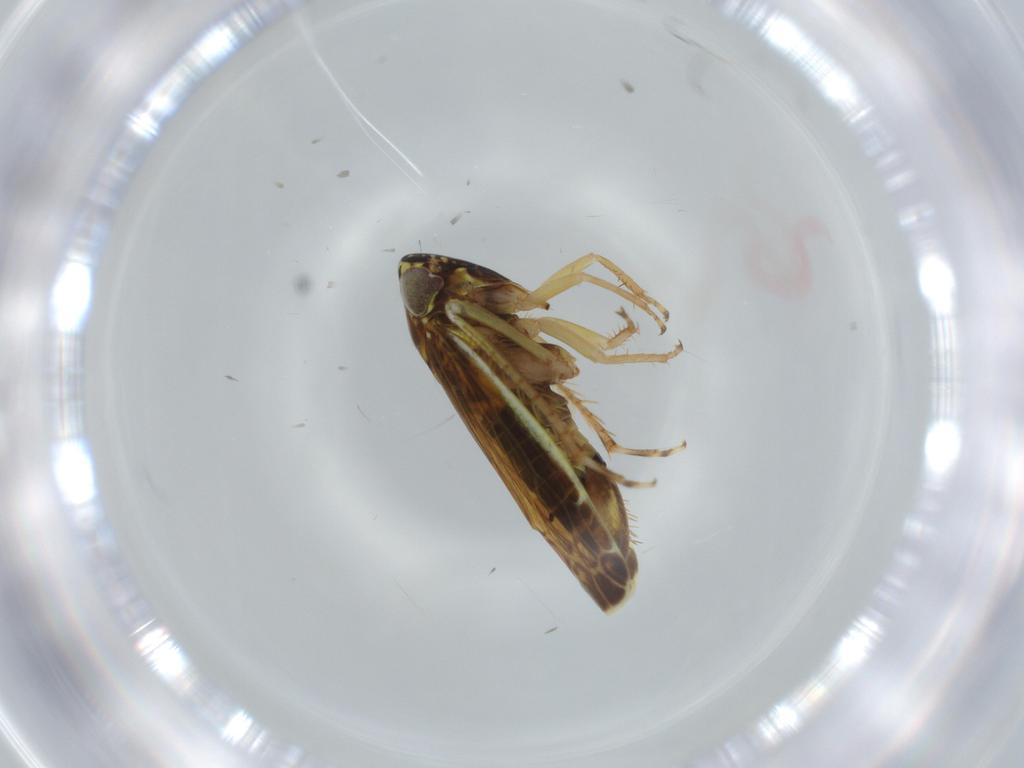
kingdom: Animalia
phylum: Arthropoda
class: Insecta
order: Hemiptera
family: Cicadellidae
